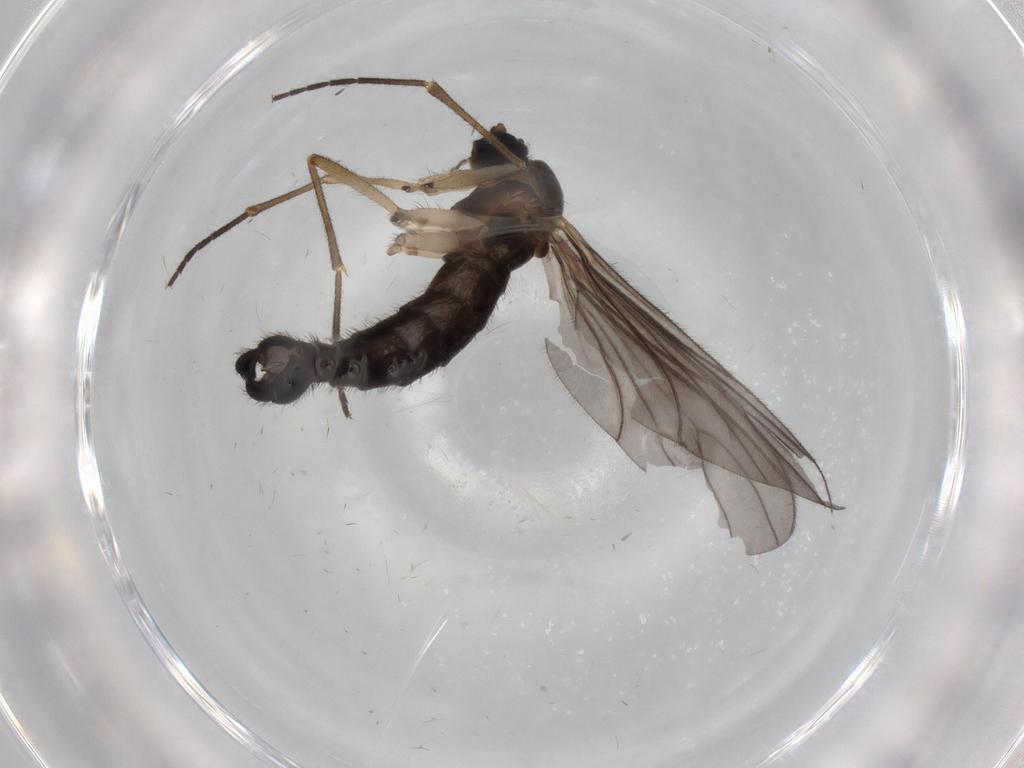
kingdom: Animalia
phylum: Arthropoda
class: Insecta
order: Diptera
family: Sciaridae
